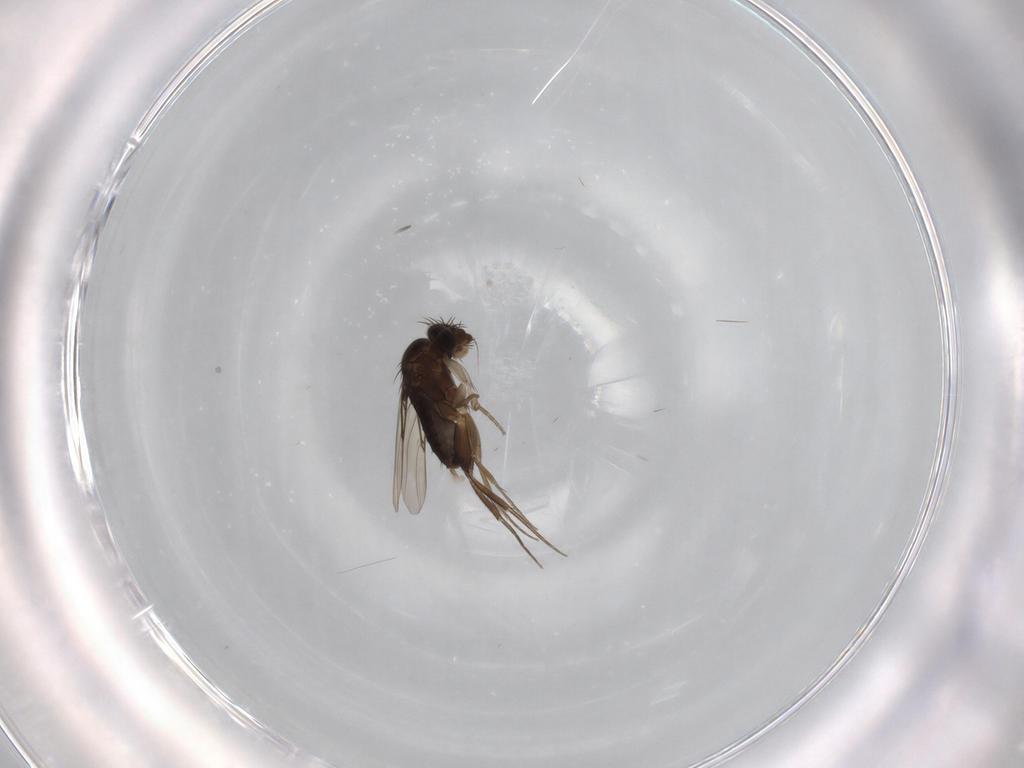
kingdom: Animalia
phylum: Arthropoda
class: Insecta
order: Diptera
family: Phoridae
